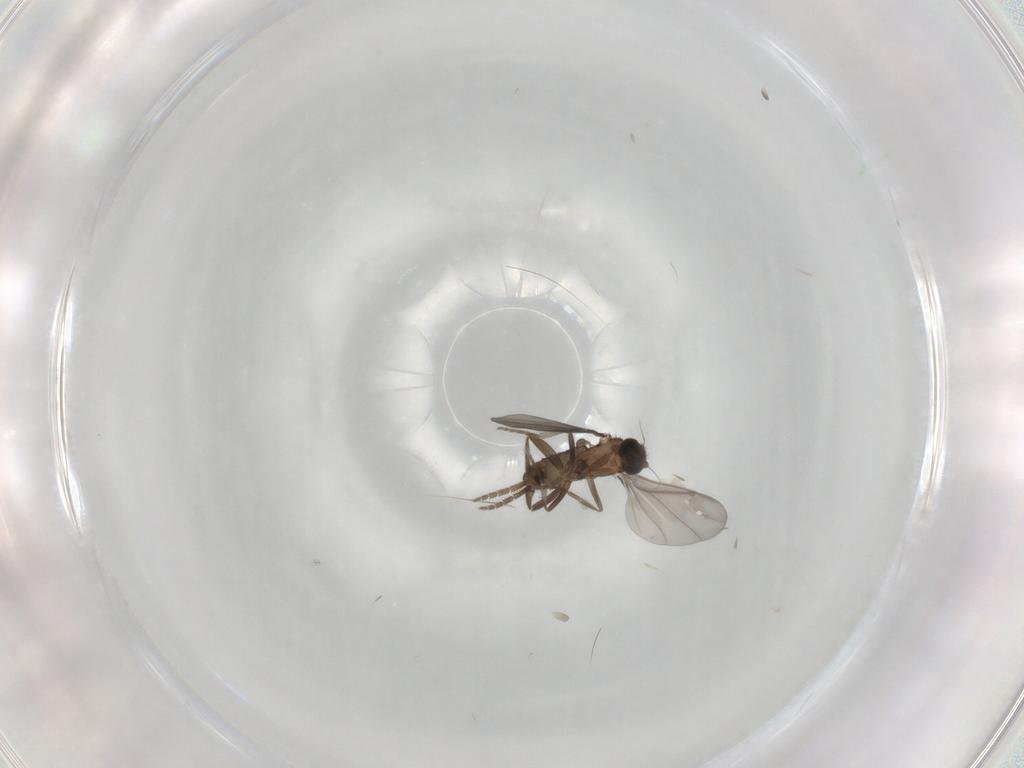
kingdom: Animalia
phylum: Arthropoda
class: Insecta
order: Diptera
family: Phoridae
